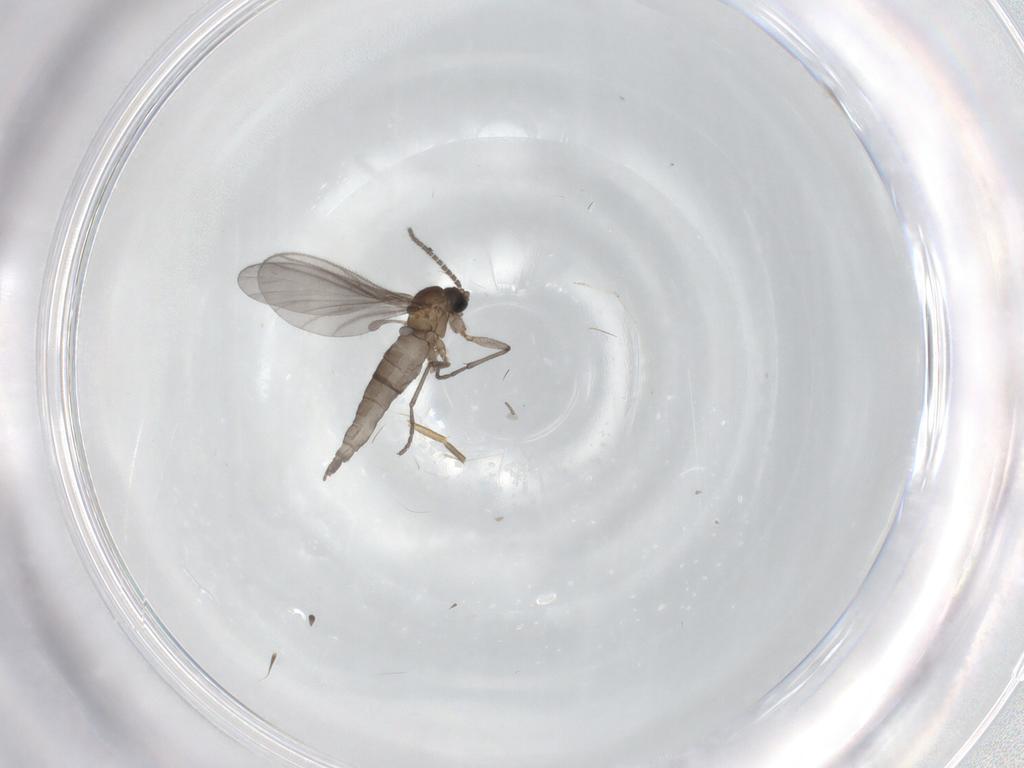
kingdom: Animalia
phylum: Arthropoda
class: Insecta
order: Diptera
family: Sciaridae
